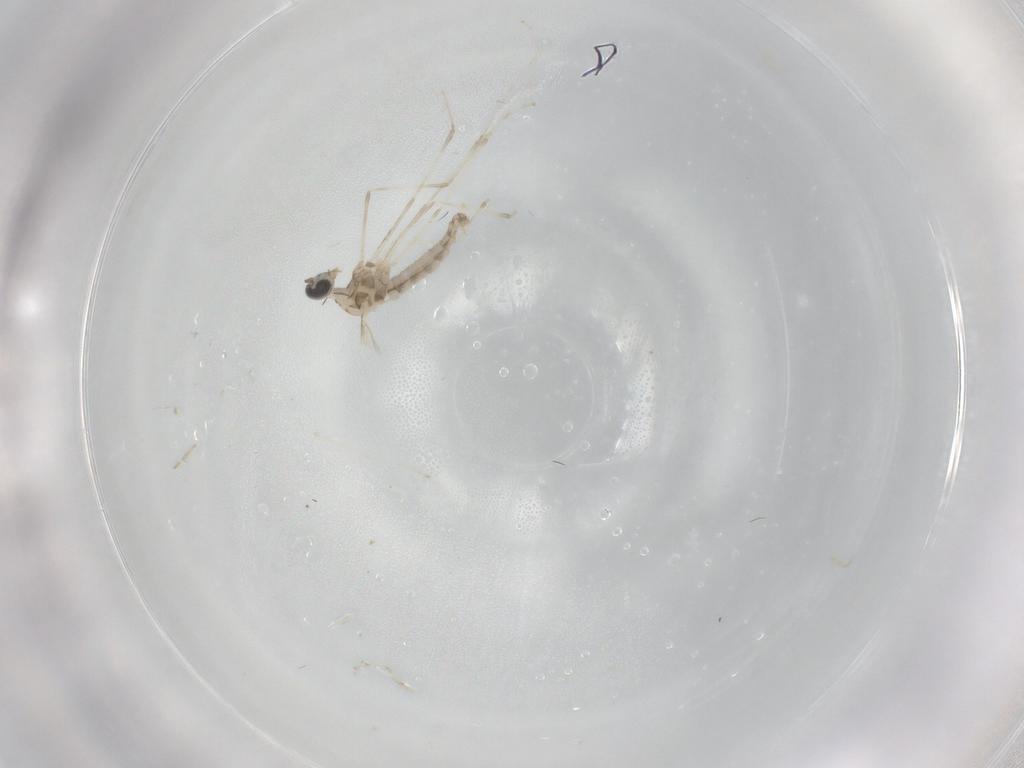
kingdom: Animalia
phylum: Arthropoda
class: Insecta
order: Diptera
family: Cecidomyiidae
